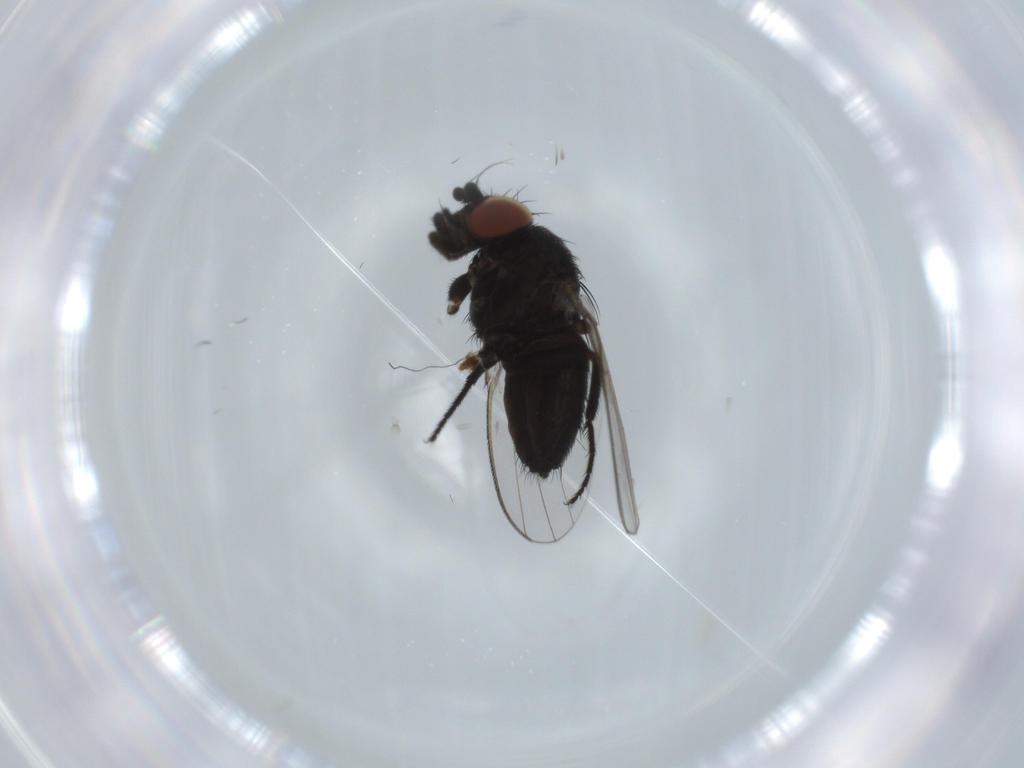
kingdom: Animalia
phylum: Arthropoda
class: Insecta
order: Diptera
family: Milichiidae
